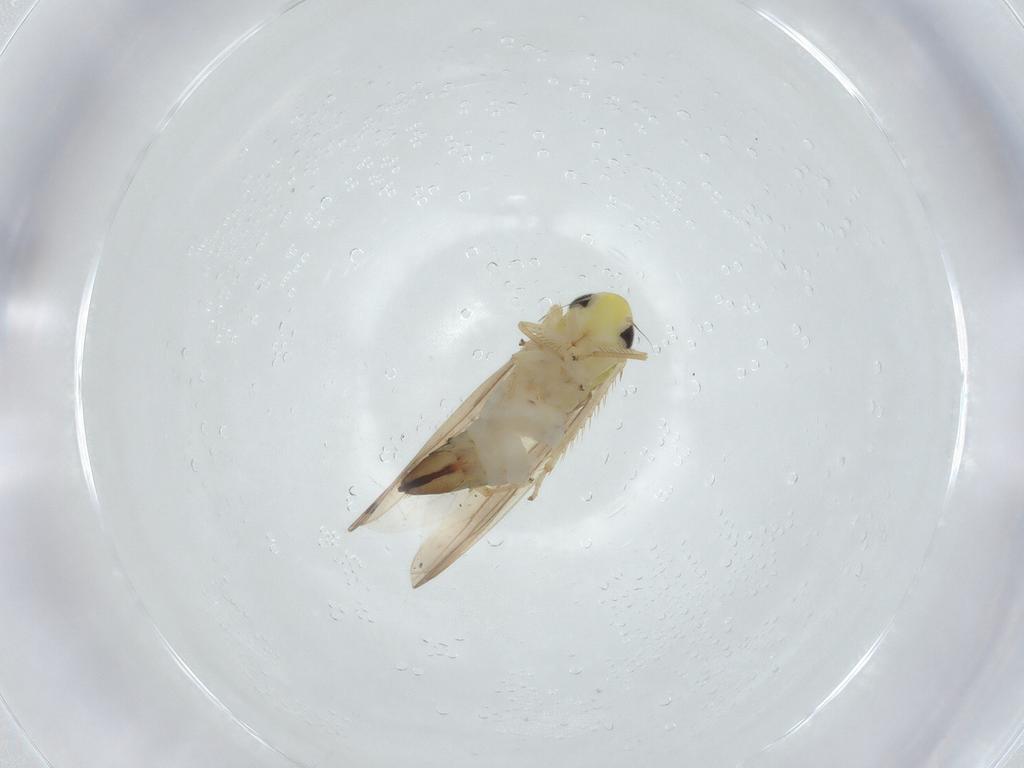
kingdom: Animalia
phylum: Arthropoda
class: Insecta
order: Hemiptera
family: Cicadellidae
